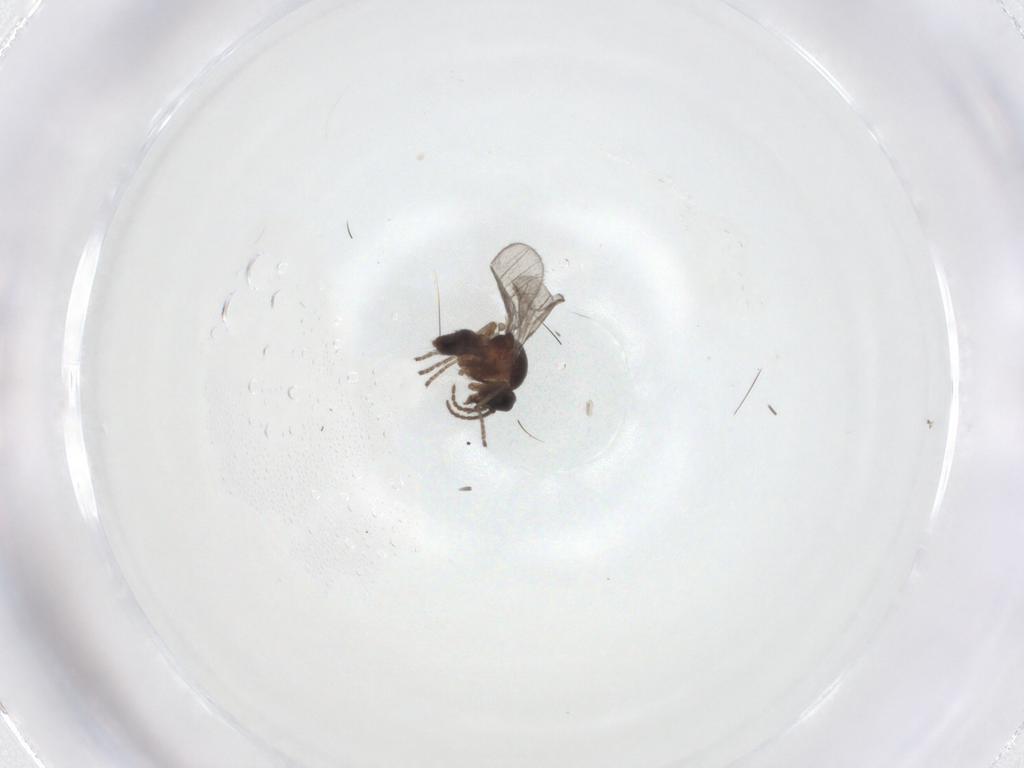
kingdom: Animalia
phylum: Arthropoda
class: Insecta
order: Diptera
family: Ceratopogonidae
